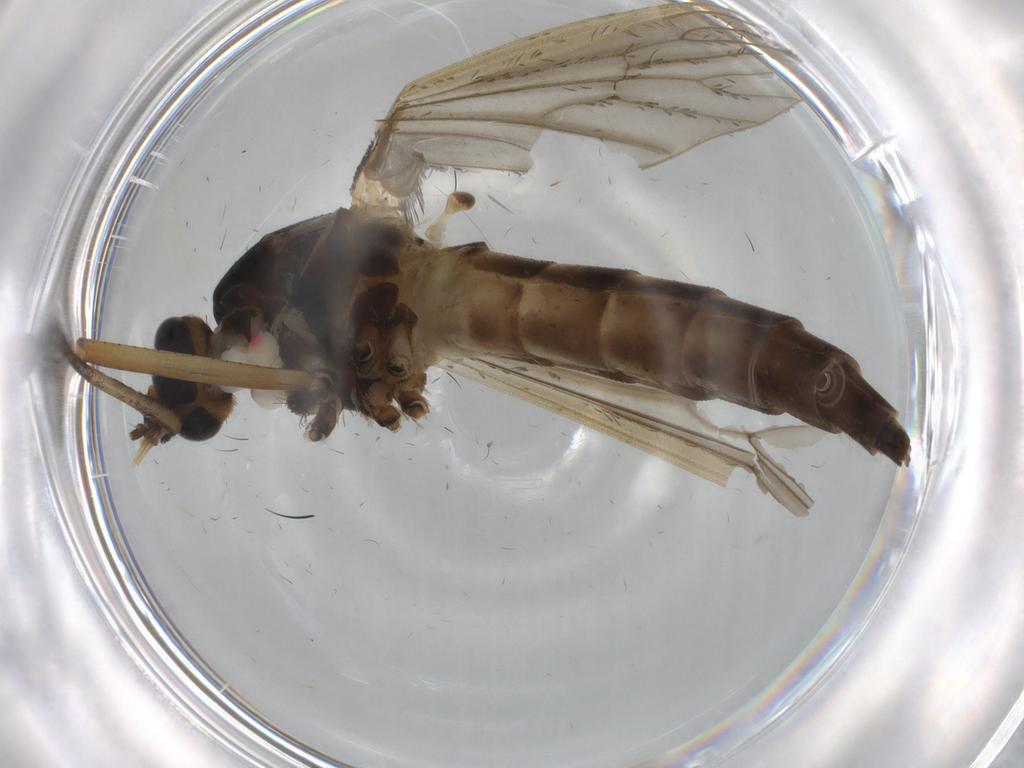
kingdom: Animalia
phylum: Arthropoda
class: Insecta
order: Diptera
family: Chironomidae
